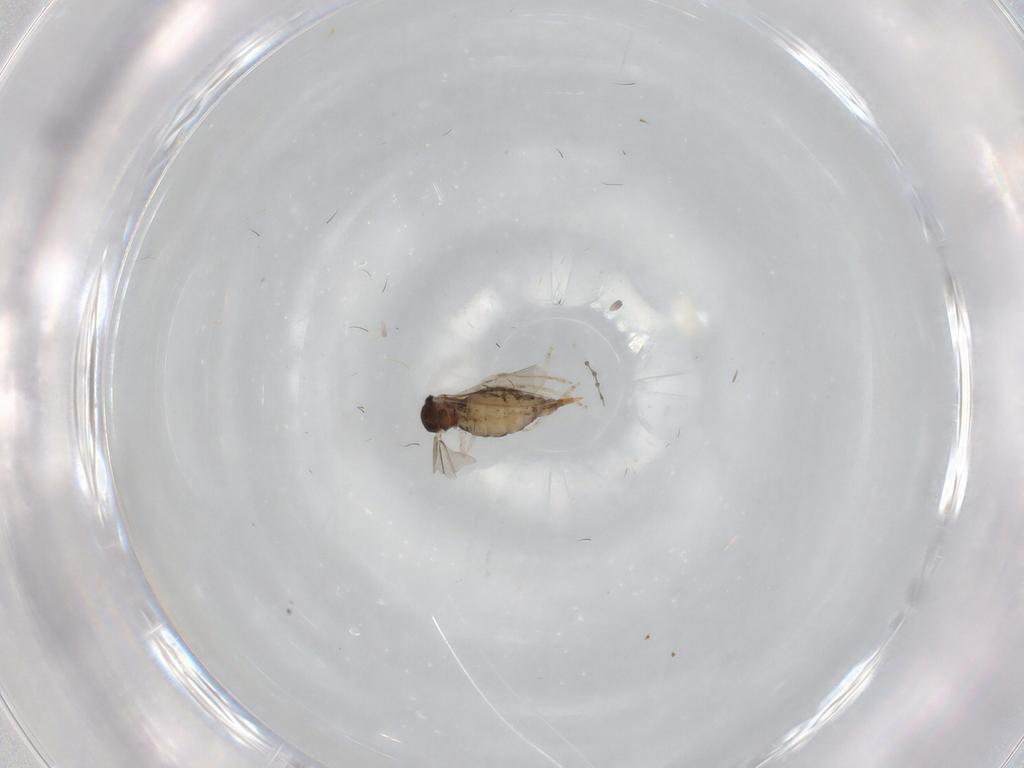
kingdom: Animalia
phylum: Arthropoda
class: Insecta
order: Diptera
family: Cecidomyiidae
